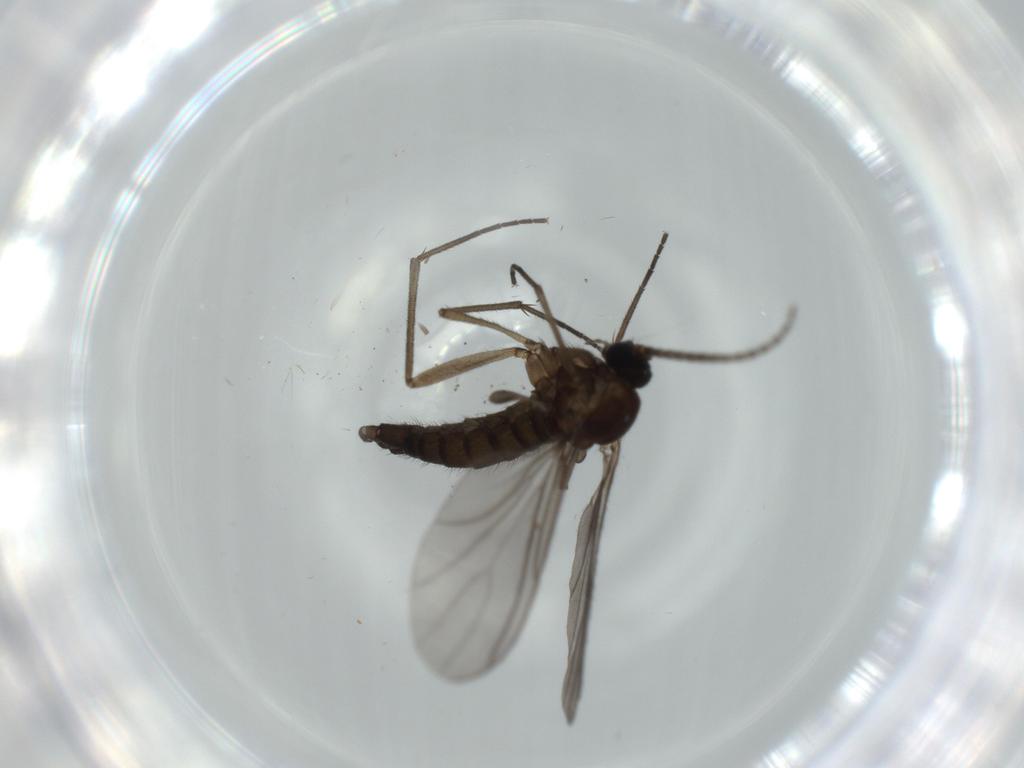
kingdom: Animalia
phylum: Arthropoda
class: Insecta
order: Diptera
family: Sciaridae
